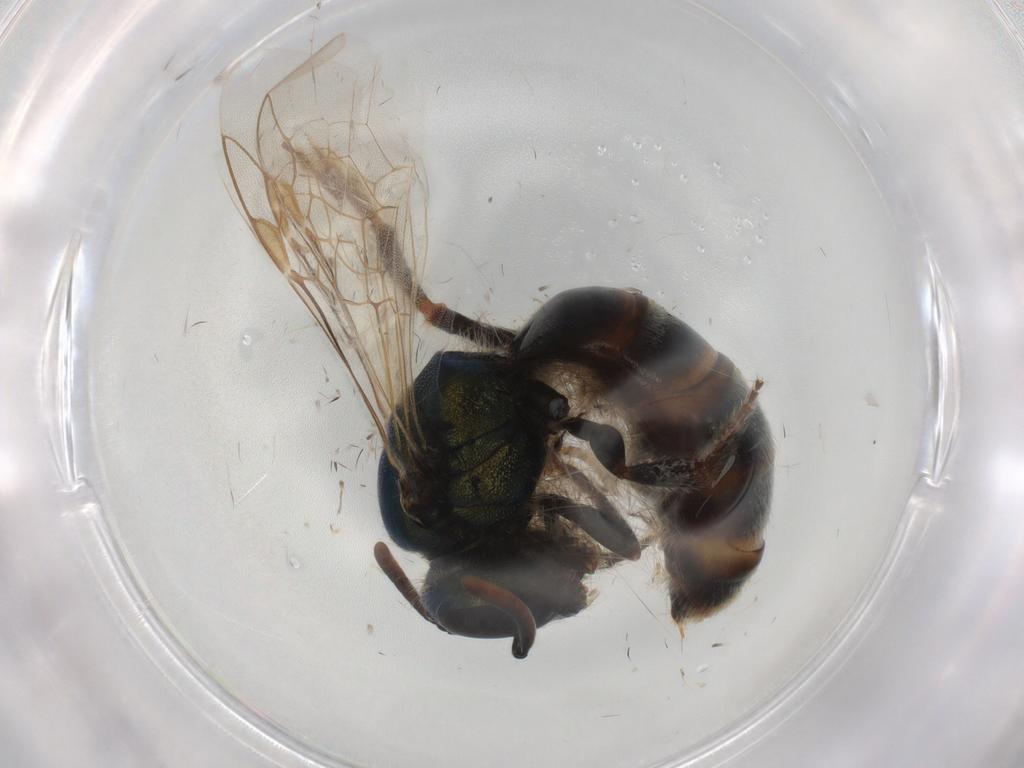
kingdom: Animalia
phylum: Arthropoda
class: Insecta
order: Hymenoptera
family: Halictidae
